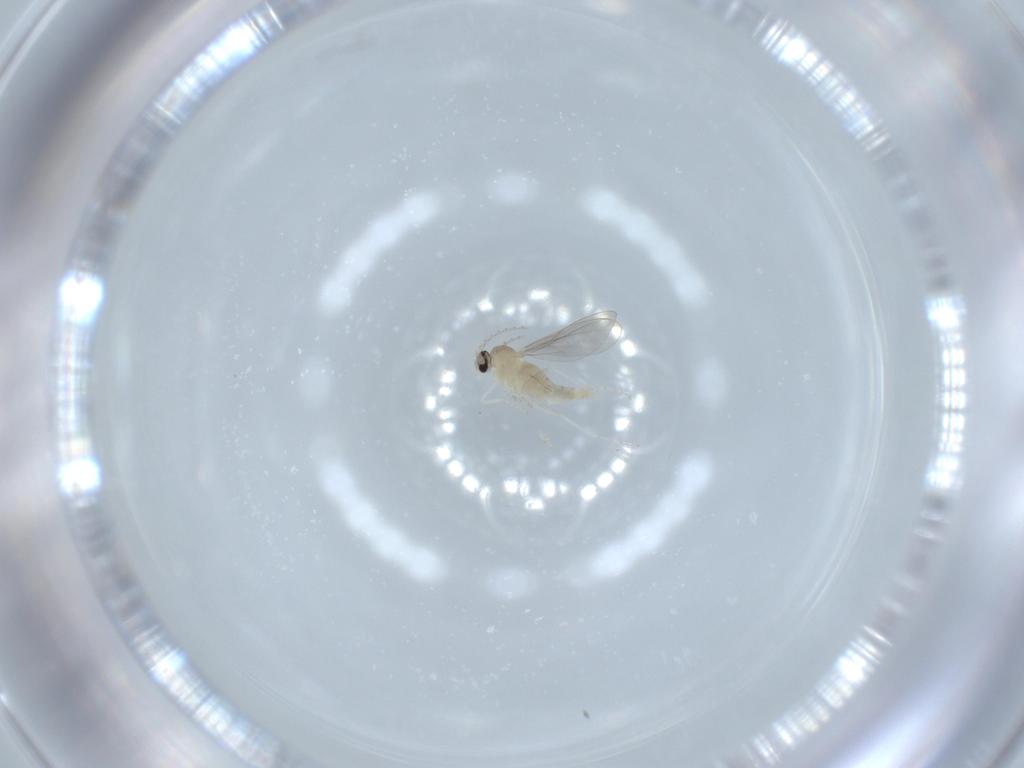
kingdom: Animalia
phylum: Arthropoda
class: Insecta
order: Diptera
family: Cecidomyiidae
